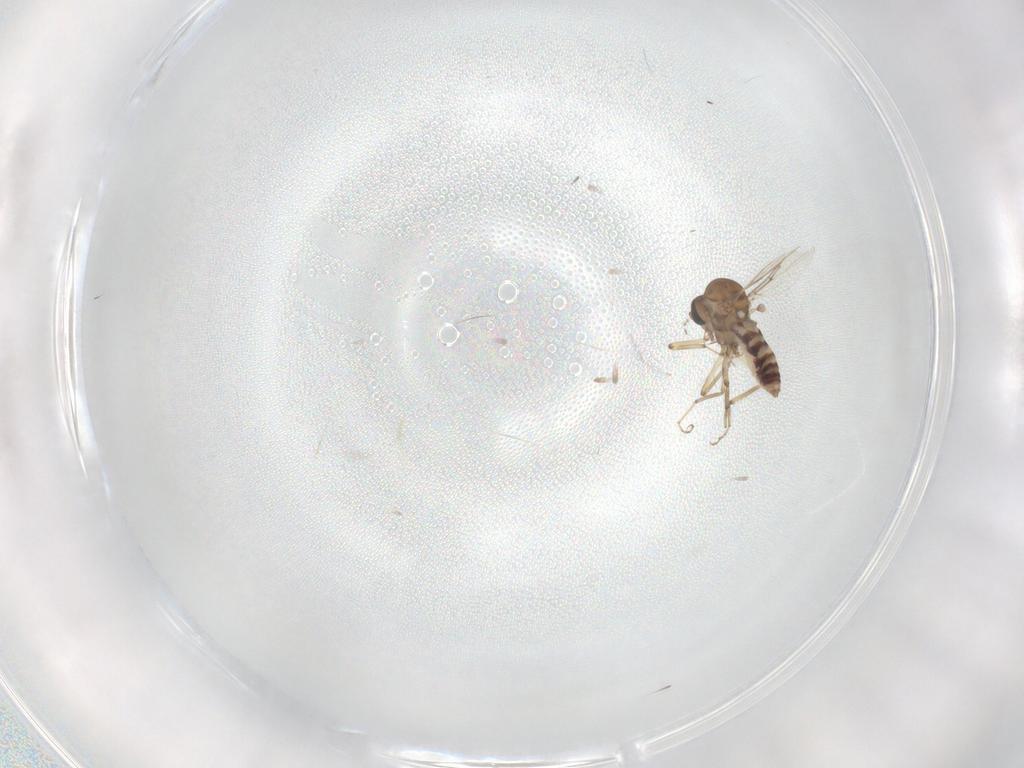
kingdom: Animalia
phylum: Arthropoda
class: Insecta
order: Diptera
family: Ceratopogonidae
